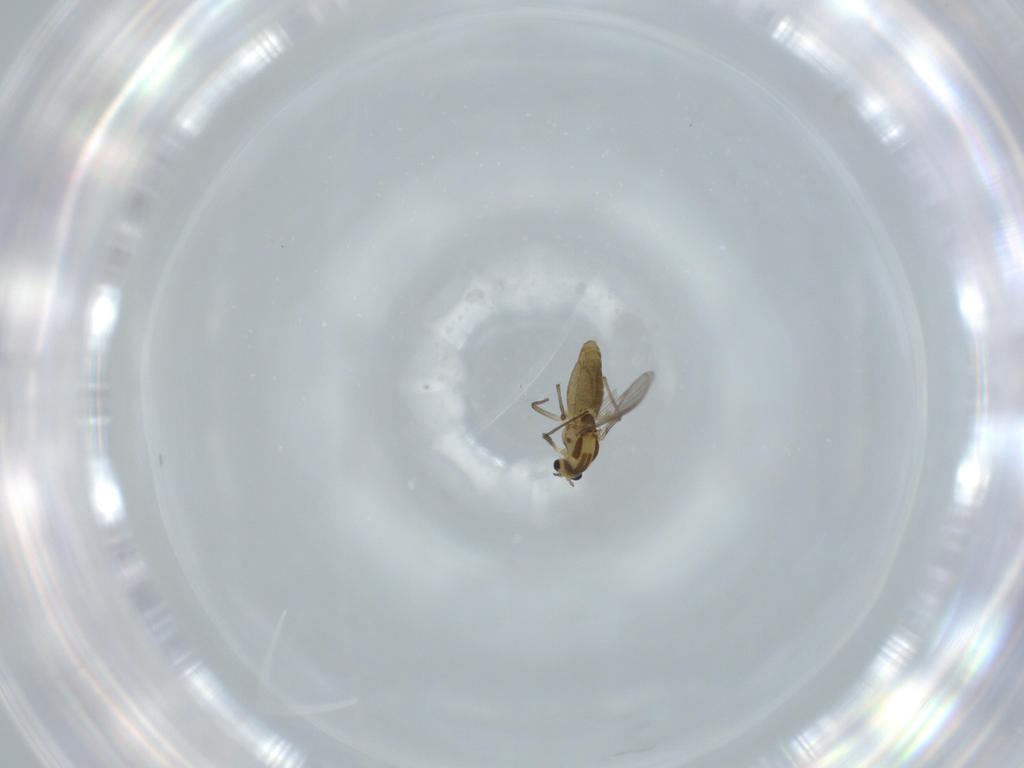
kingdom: Animalia
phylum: Arthropoda
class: Insecta
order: Diptera
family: Chironomidae
